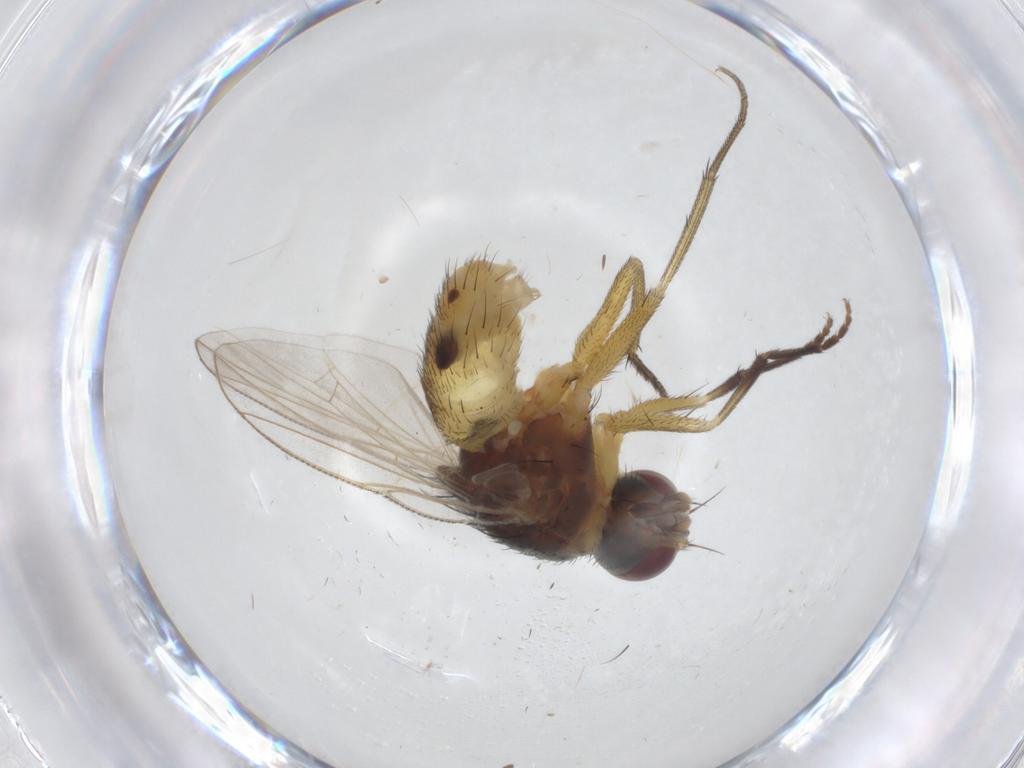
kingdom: Animalia
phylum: Arthropoda
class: Insecta
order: Diptera
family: Muscidae
